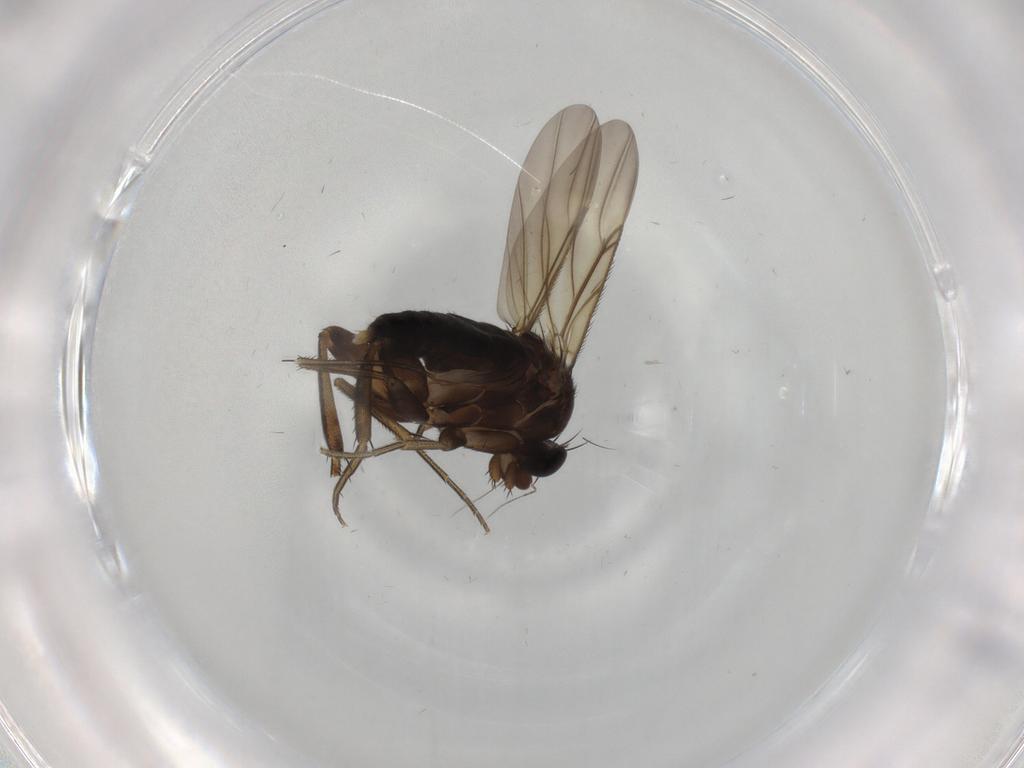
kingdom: Animalia
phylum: Arthropoda
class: Insecta
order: Diptera
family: Phoridae
